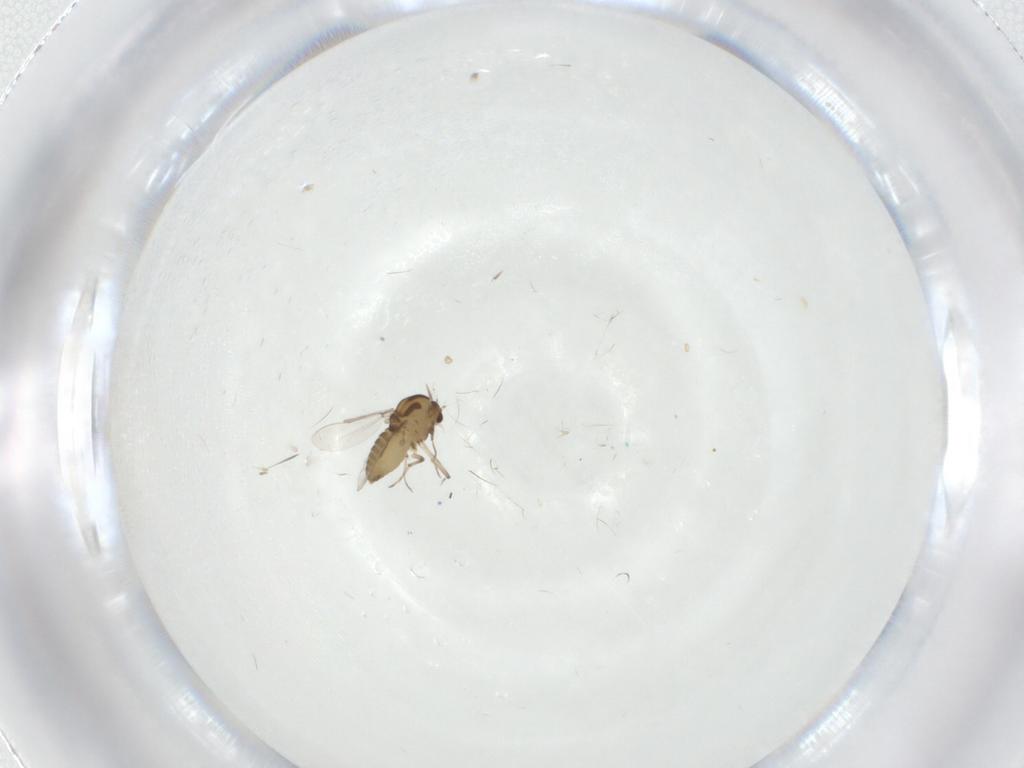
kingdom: Animalia
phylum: Arthropoda
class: Insecta
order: Diptera
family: Chironomidae
